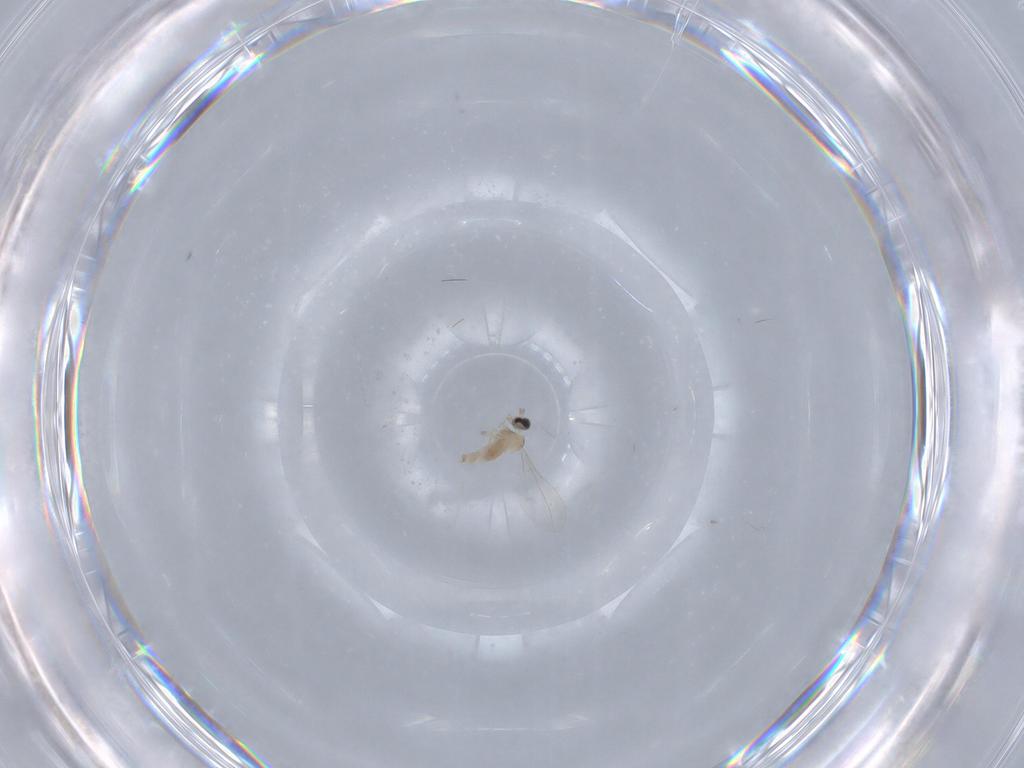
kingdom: Animalia
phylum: Arthropoda
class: Insecta
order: Diptera
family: Cecidomyiidae
